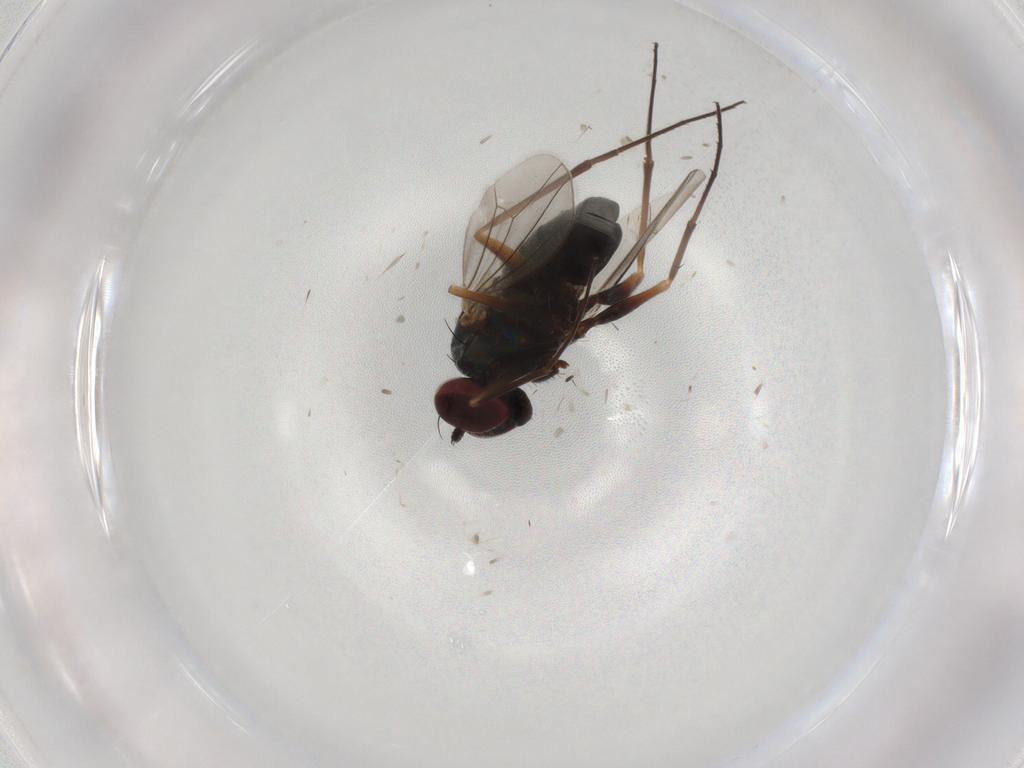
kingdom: Animalia
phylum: Arthropoda
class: Insecta
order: Diptera
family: Dolichopodidae
